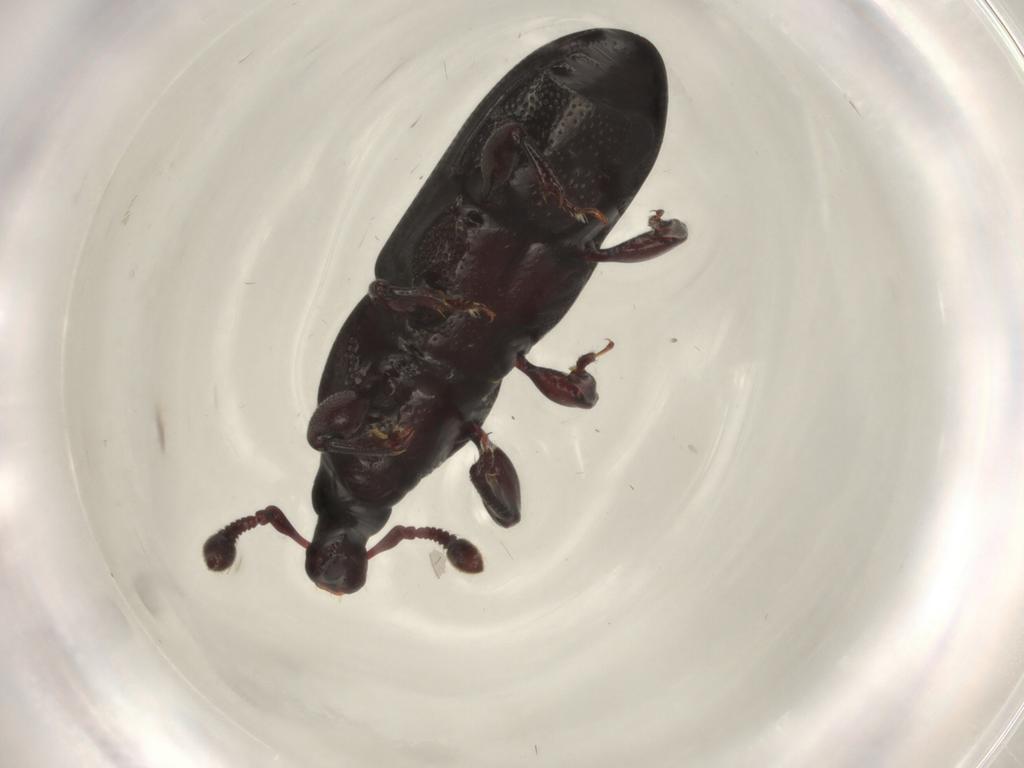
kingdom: Animalia
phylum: Arthropoda
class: Insecta
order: Coleoptera
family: Curculionidae
